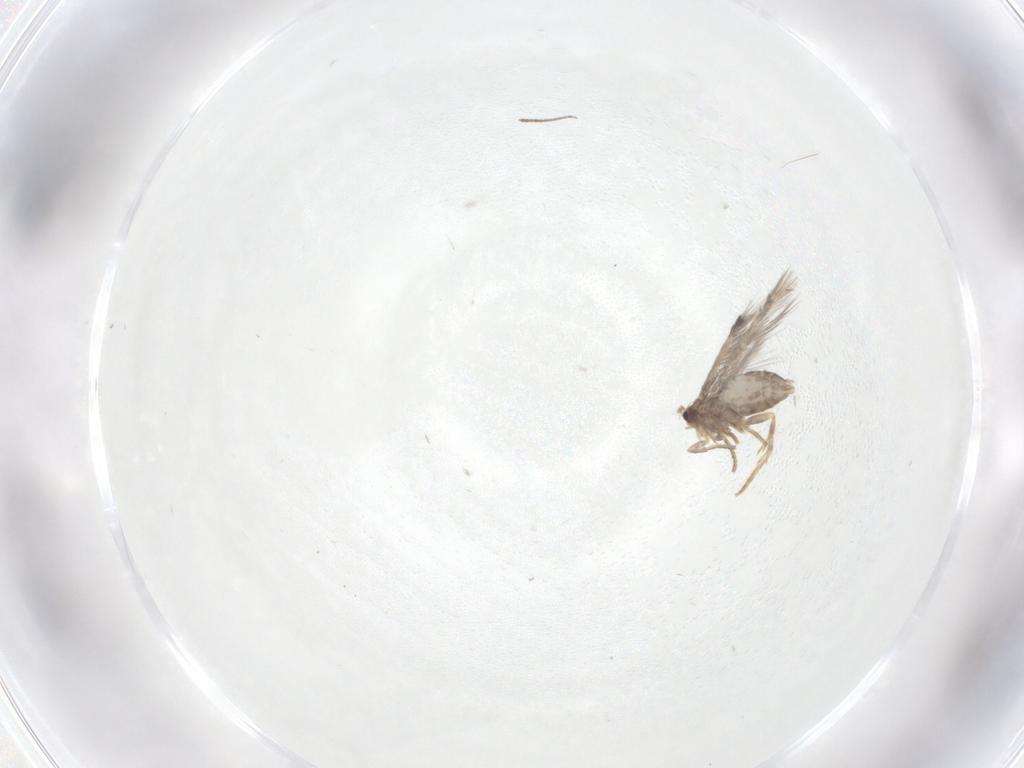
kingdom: Animalia
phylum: Arthropoda
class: Insecta
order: Lepidoptera
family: Nepticulidae
